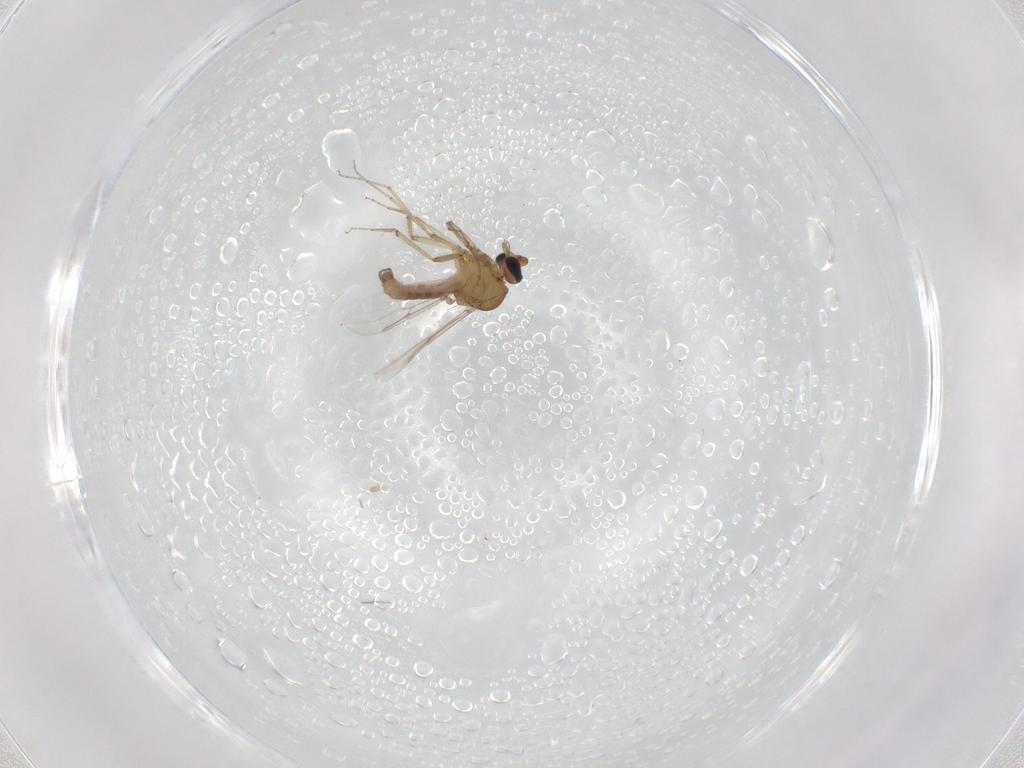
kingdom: Animalia
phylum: Arthropoda
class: Insecta
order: Diptera
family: Ceratopogonidae
